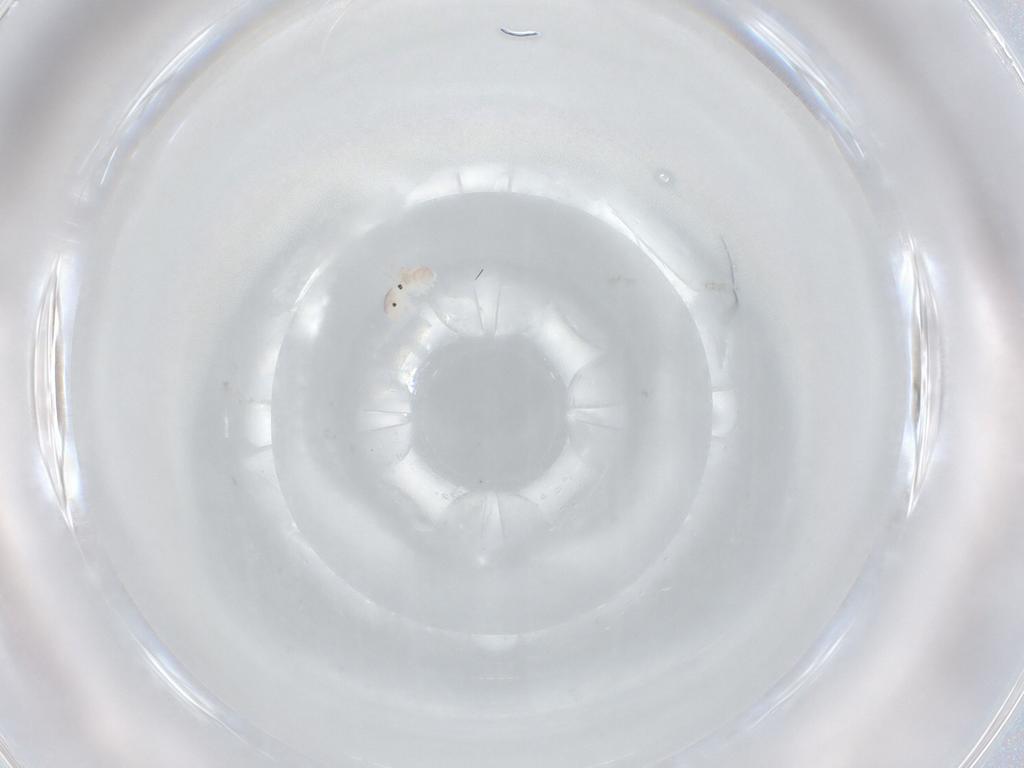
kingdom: Animalia
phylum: Arthropoda
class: Arachnida
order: Trombidiformes
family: Arrenuridae
